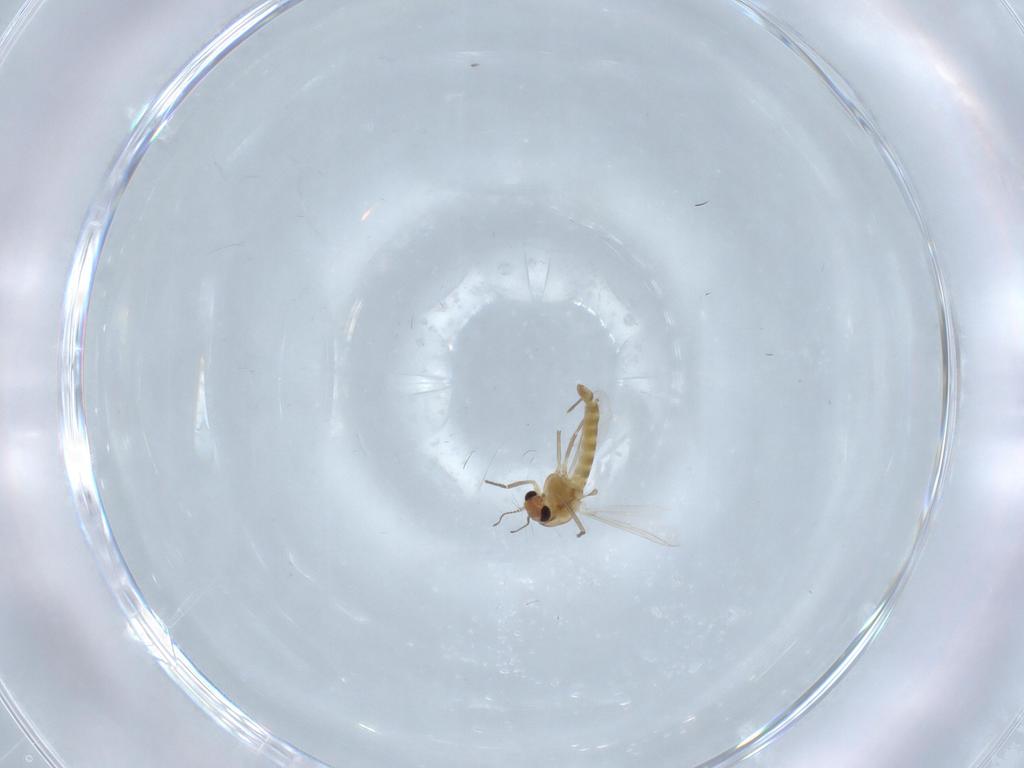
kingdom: Animalia
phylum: Arthropoda
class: Insecta
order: Diptera
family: Chironomidae
